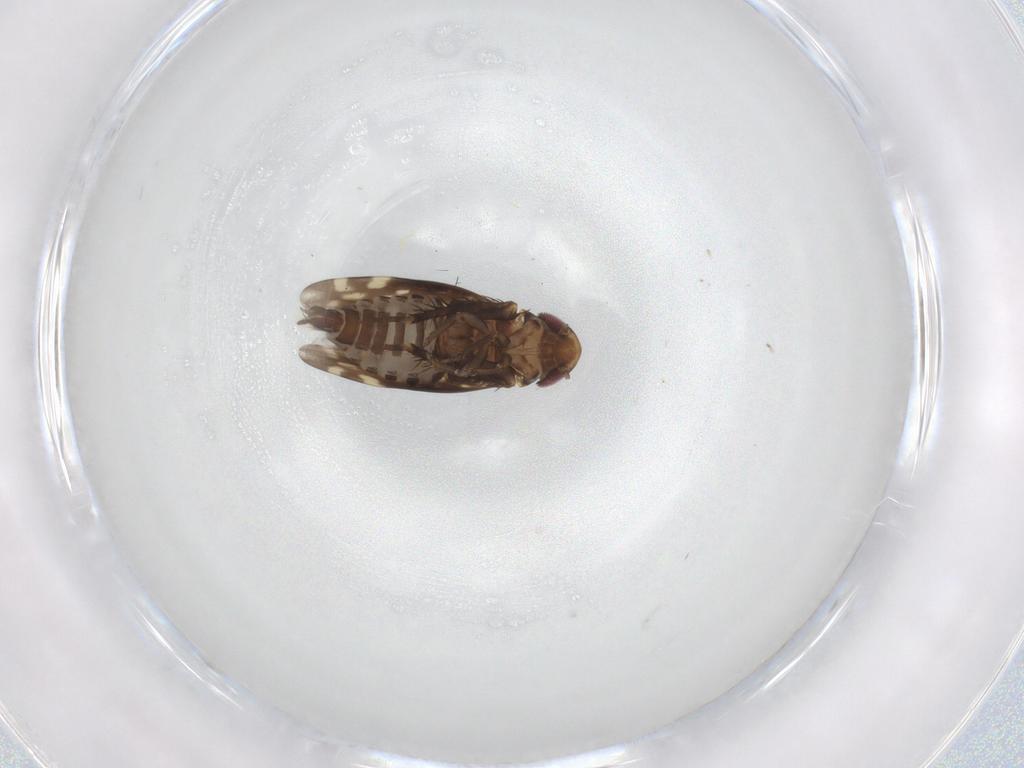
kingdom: Animalia
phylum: Arthropoda
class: Insecta
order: Hemiptera
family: Cicadellidae
